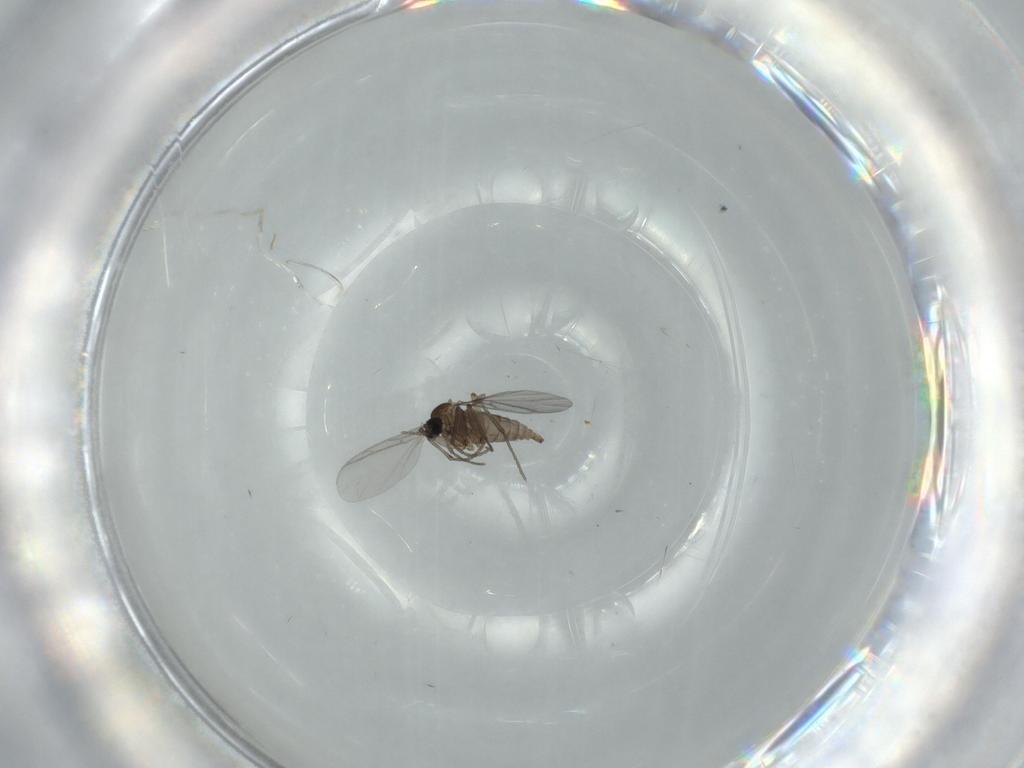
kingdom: Animalia
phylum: Arthropoda
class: Insecta
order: Diptera
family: Sciaridae
